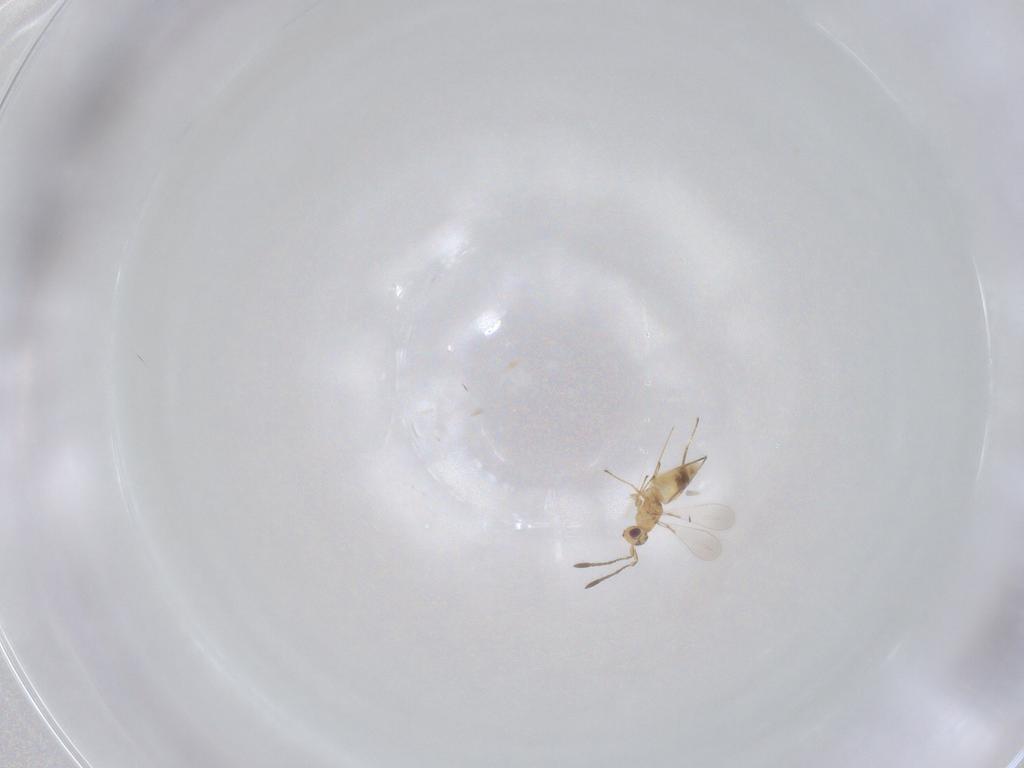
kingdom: Animalia
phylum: Arthropoda
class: Insecta
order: Hymenoptera
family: Mymaridae
